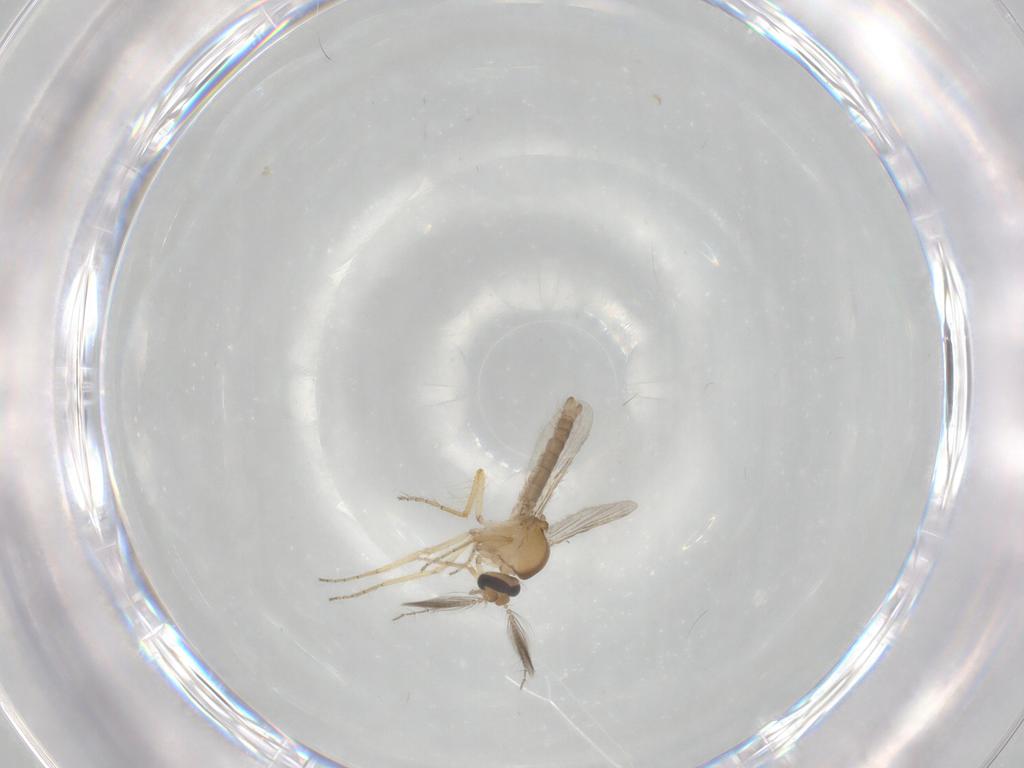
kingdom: Animalia
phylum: Arthropoda
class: Insecta
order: Diptera
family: Ceratopogonidae
